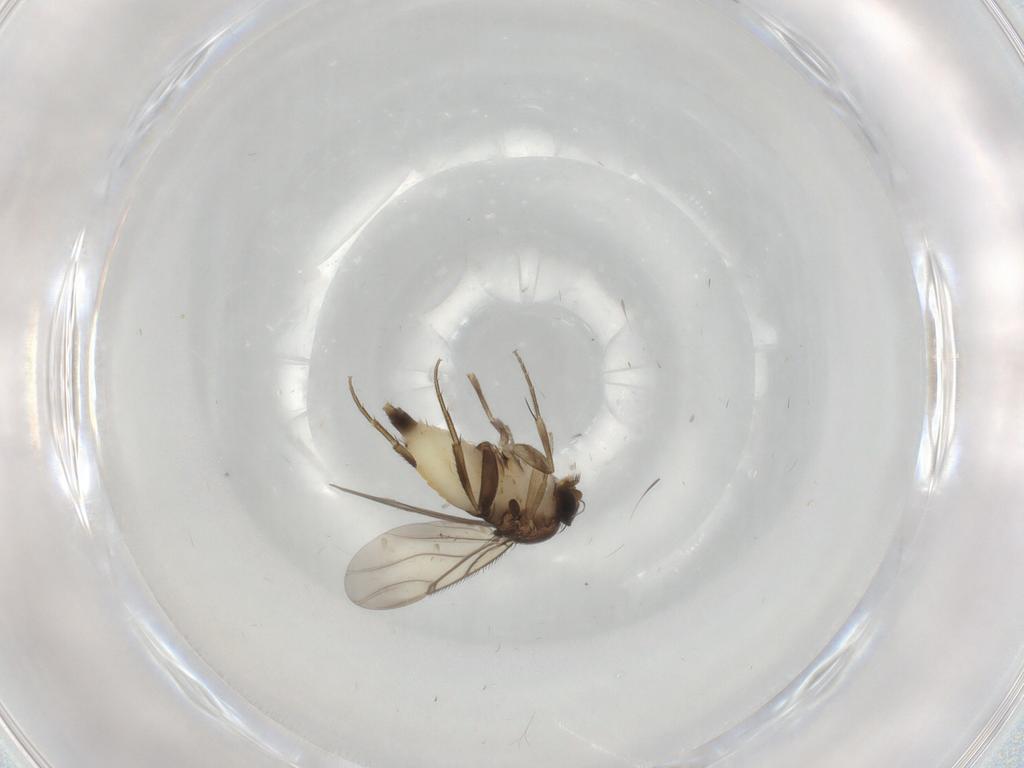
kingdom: Animalia
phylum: Arthropoda
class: Insecta
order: Diptera
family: Phoridae
